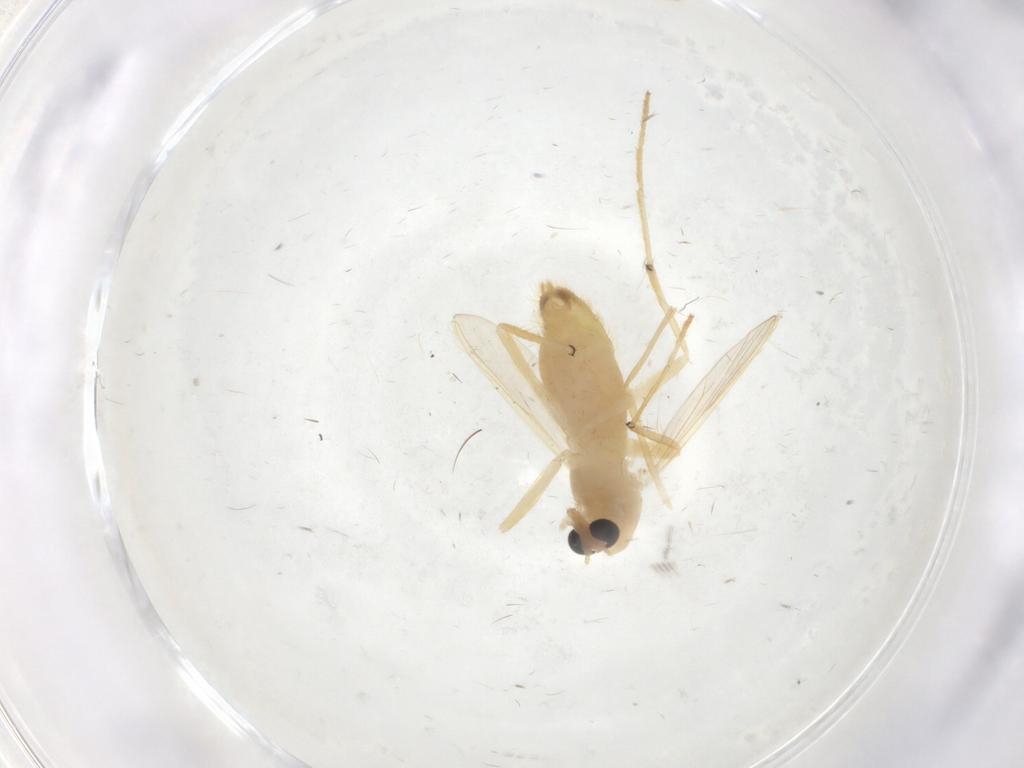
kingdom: Animalia
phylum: Arthropoda
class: Insecta
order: Diptera
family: Chironomidae
